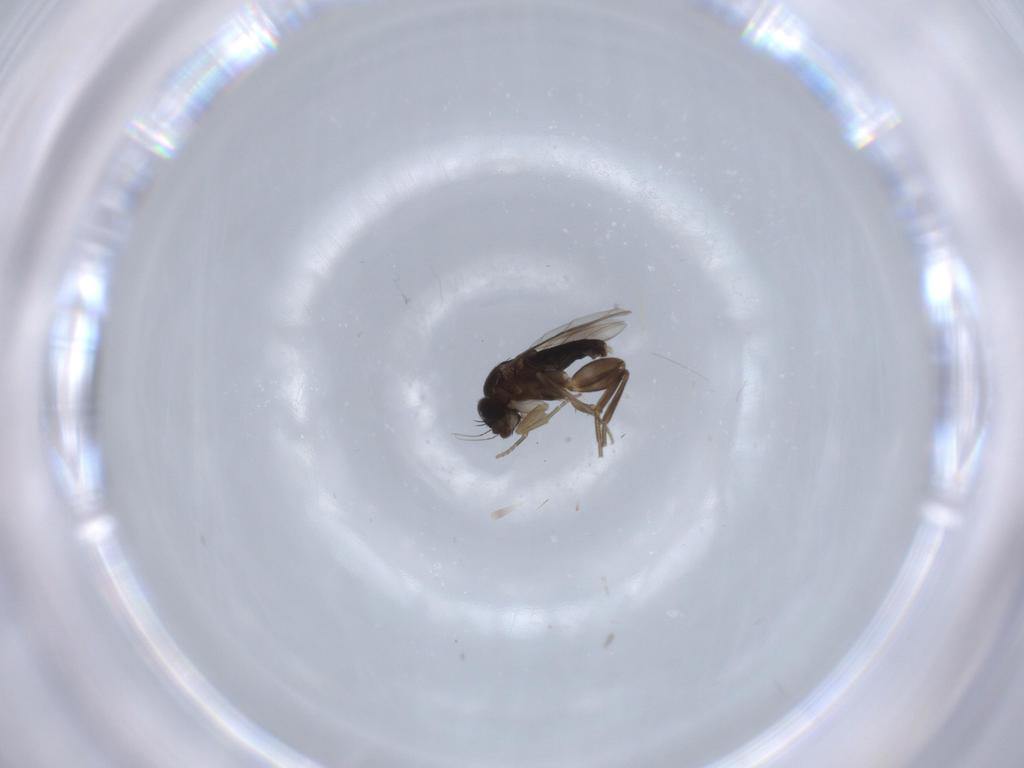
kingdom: Animalia
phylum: Arthropoda
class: Insecta
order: Diptera
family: Phoridae
